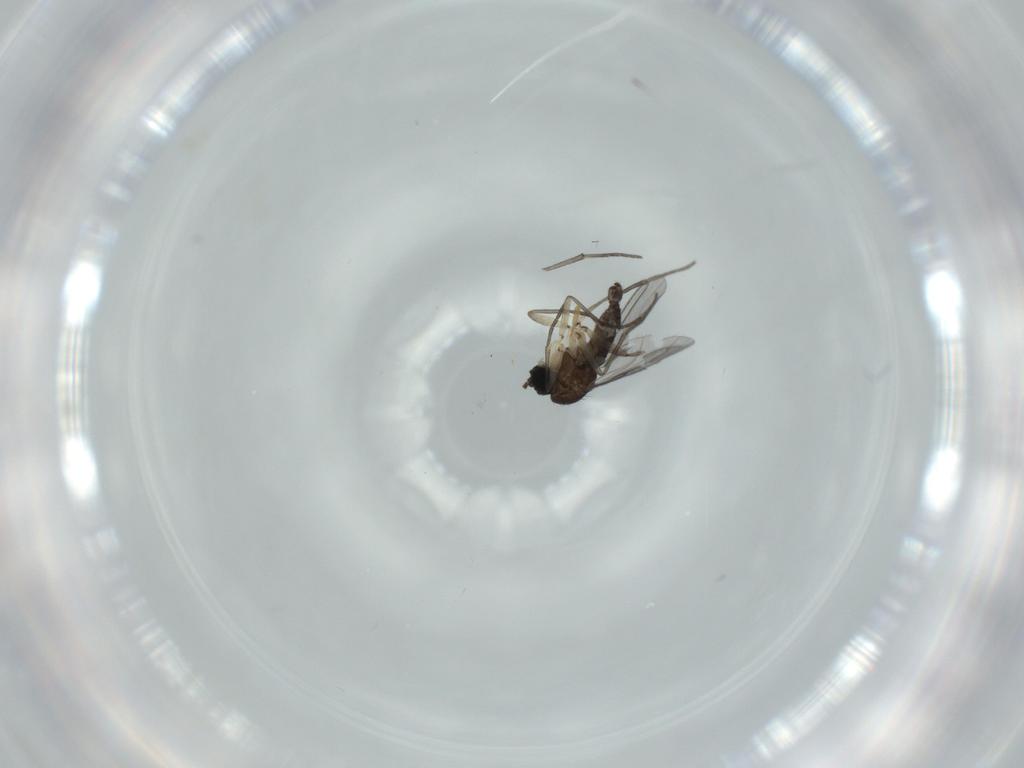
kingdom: Animalia
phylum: Arthropoda
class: Insecta
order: Diptera
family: Sciaridae
